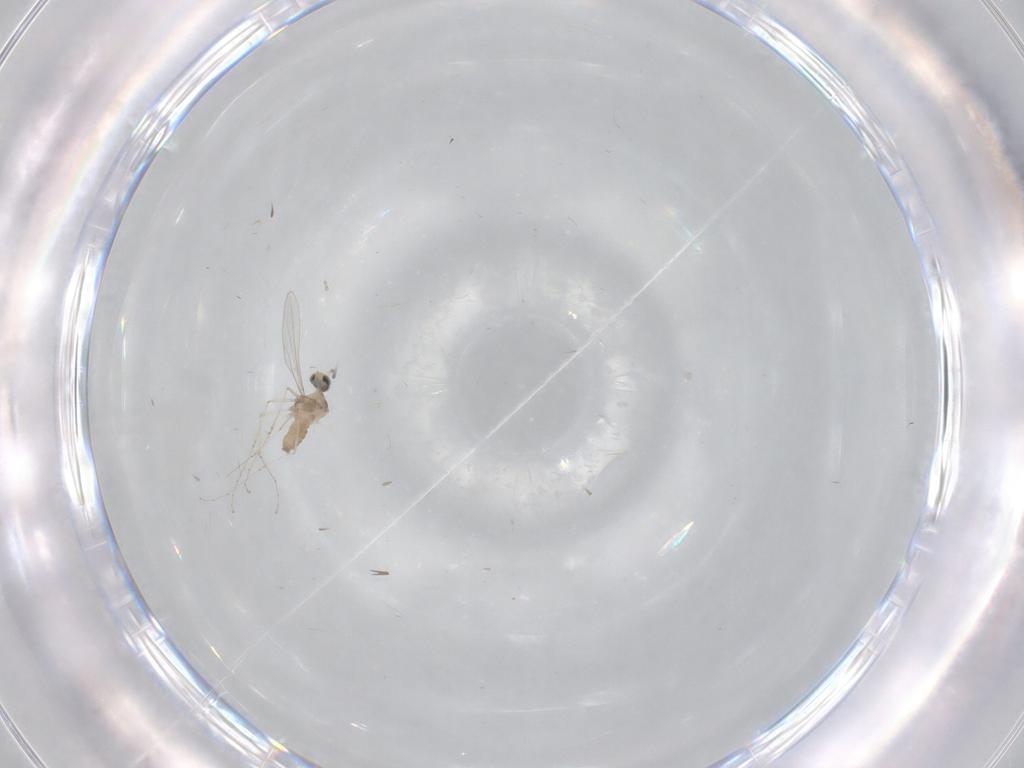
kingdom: Animalia
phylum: Arthropoda
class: Insecta
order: Diptera
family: Cecidomyiidae
